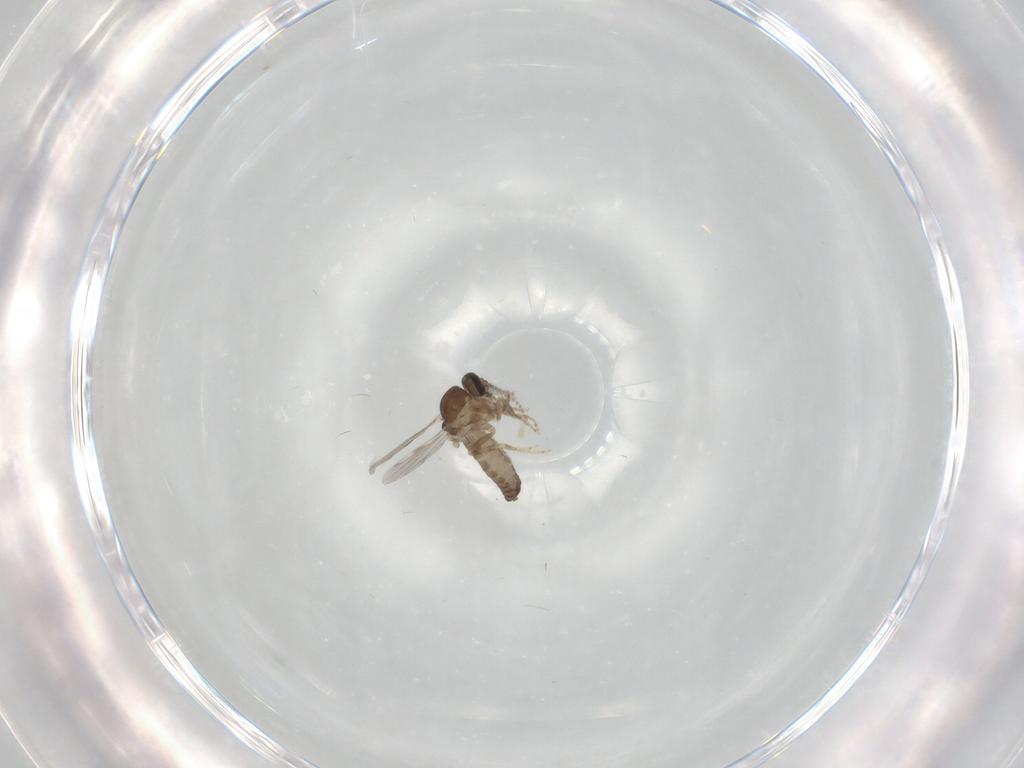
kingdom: Animalia
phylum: Arthropoda
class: Insecta
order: Diptera
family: Ceratopogonidae
